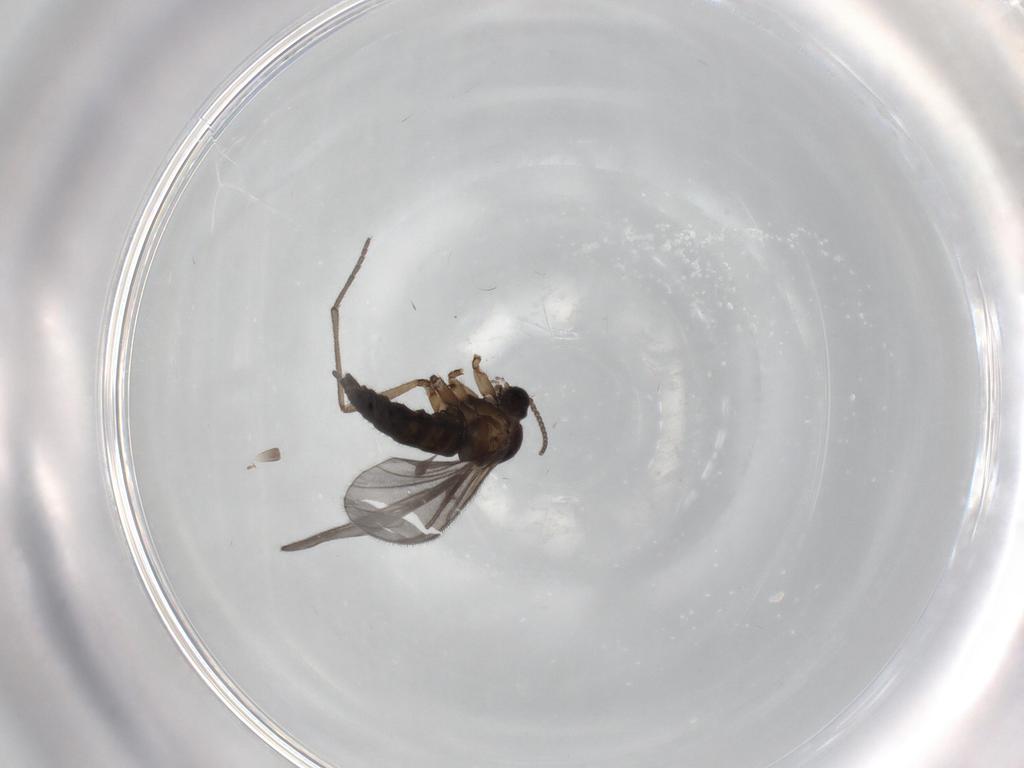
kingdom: Animalia
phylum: Arthropoda
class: Insecta
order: Diptera
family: Sciaridae
